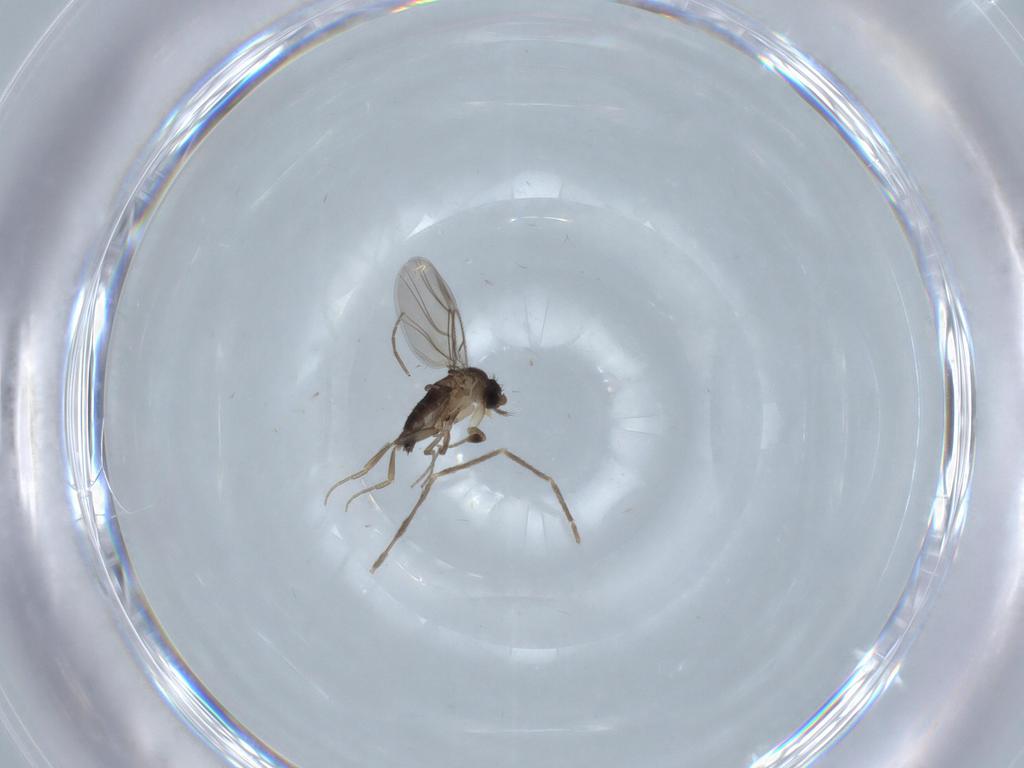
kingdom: Animalia
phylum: Arthropoda
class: Insecta
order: Diptera
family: Chironomidae
